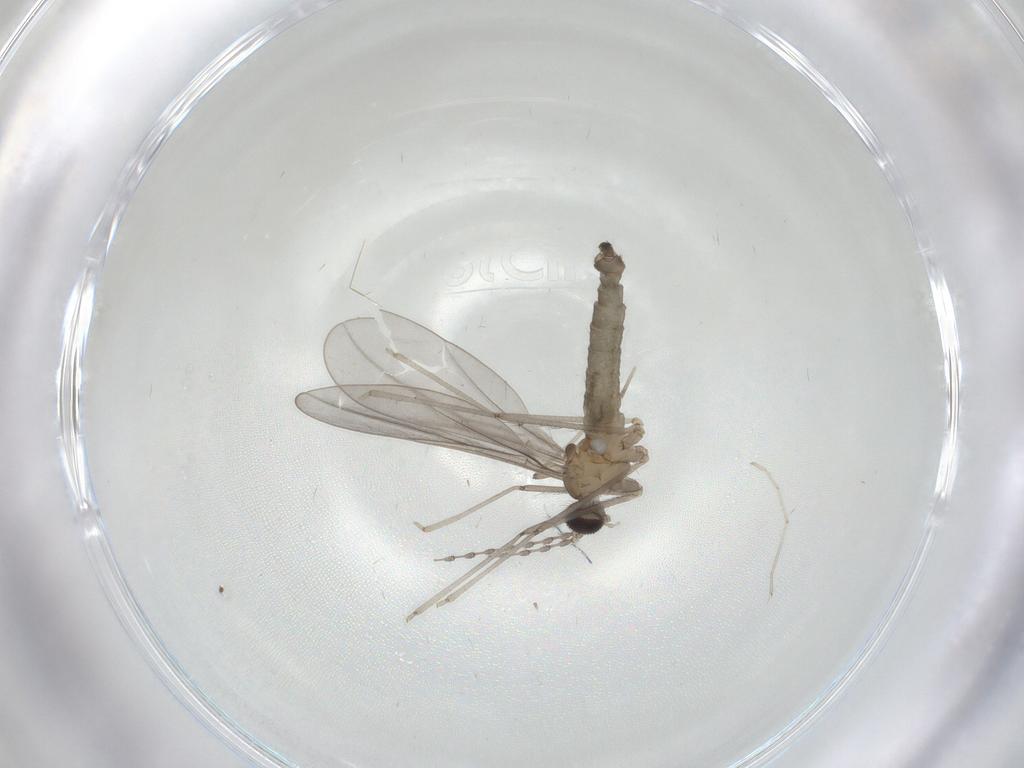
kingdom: Animalia
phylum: Arthropoda
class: Insecta
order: Diptera
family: Cecidomyiidae
